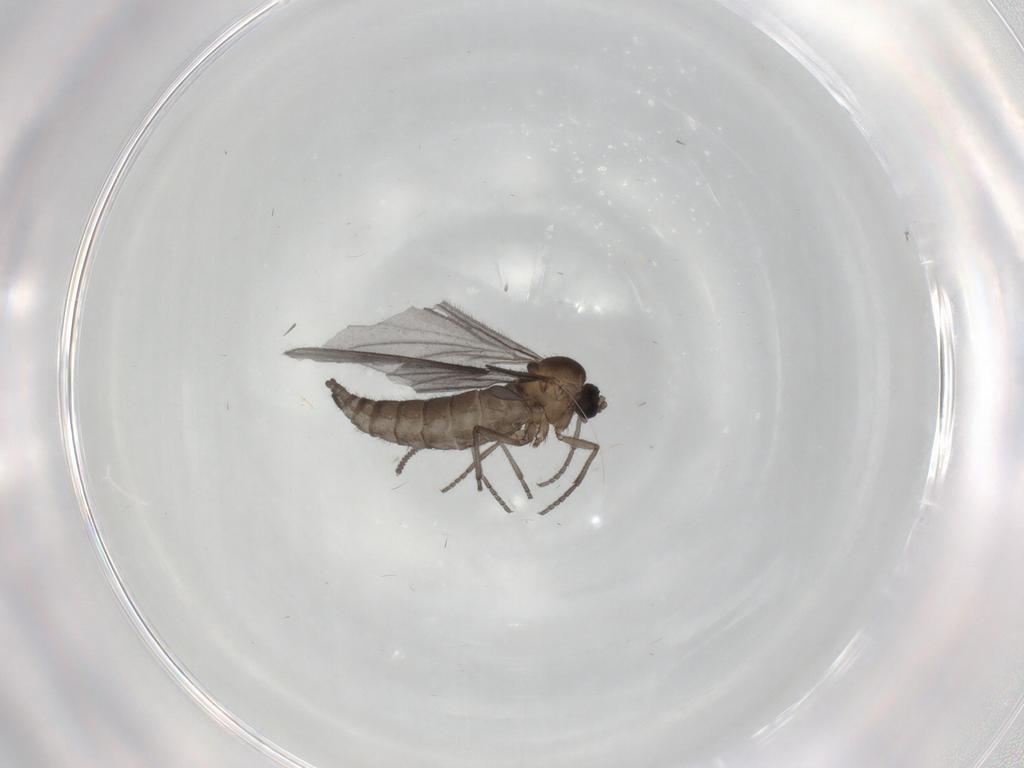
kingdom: Animalia
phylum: Arthropoda
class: Insecta
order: Diptera
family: Sciaridae
